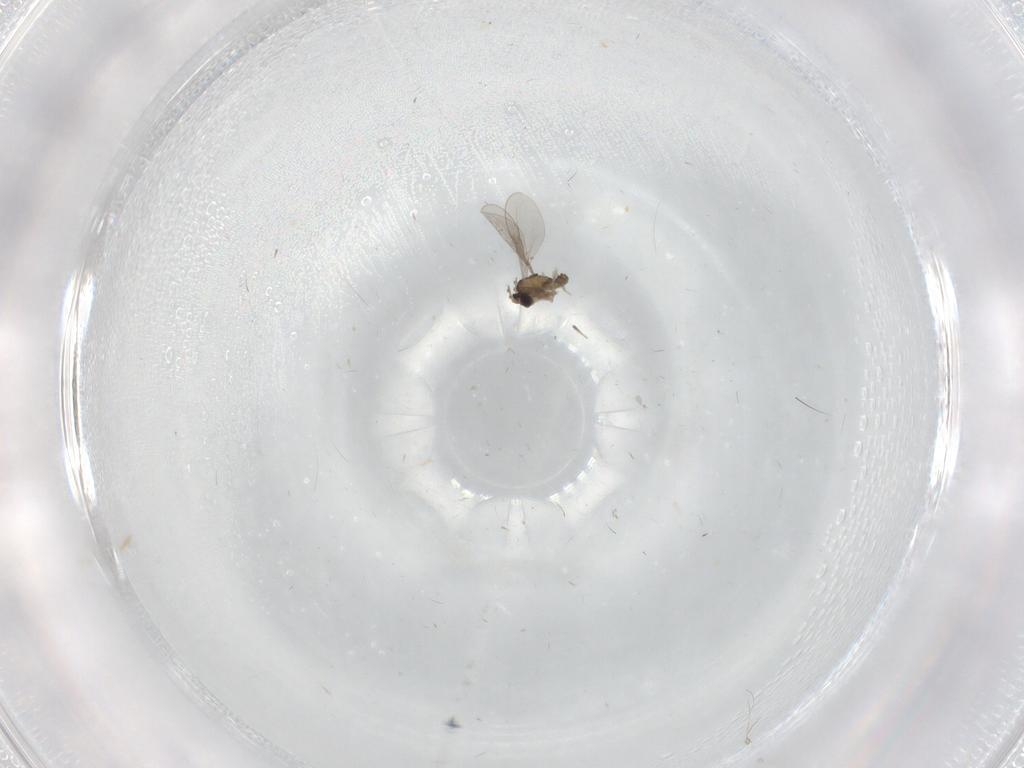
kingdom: Animalia
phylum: Arthropoda
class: Insecta
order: Diptera
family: Ceratopogonidae
